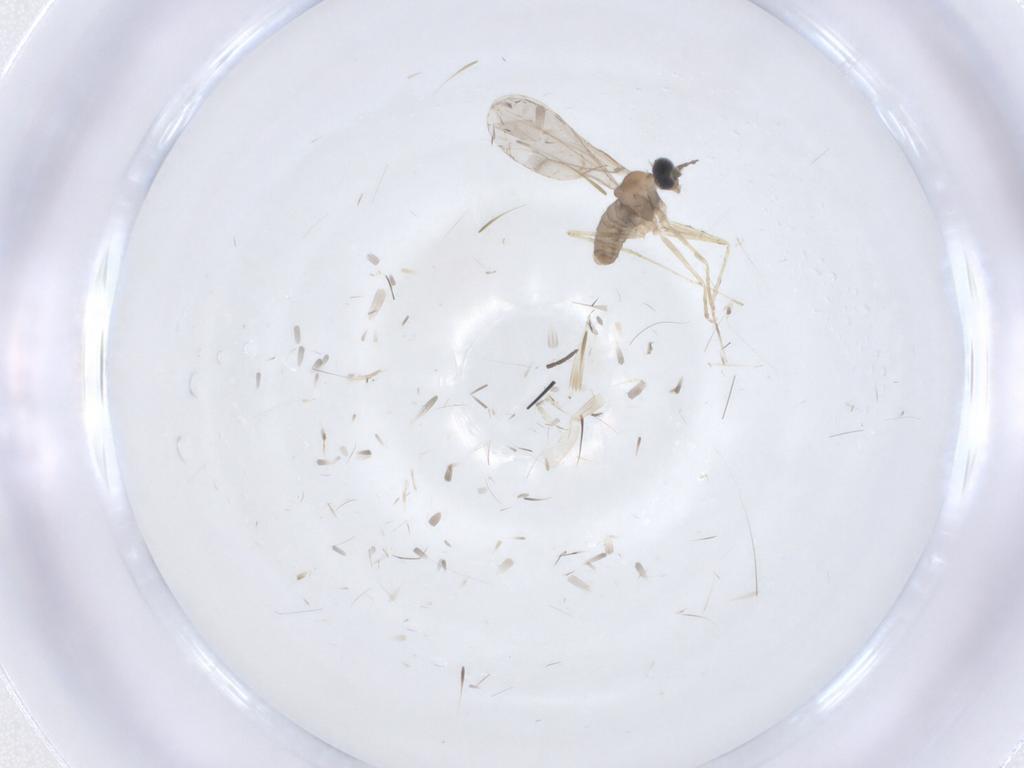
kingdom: Animalia
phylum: Arthropoda
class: Insecta
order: Diptera
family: Cecidomyiidae
